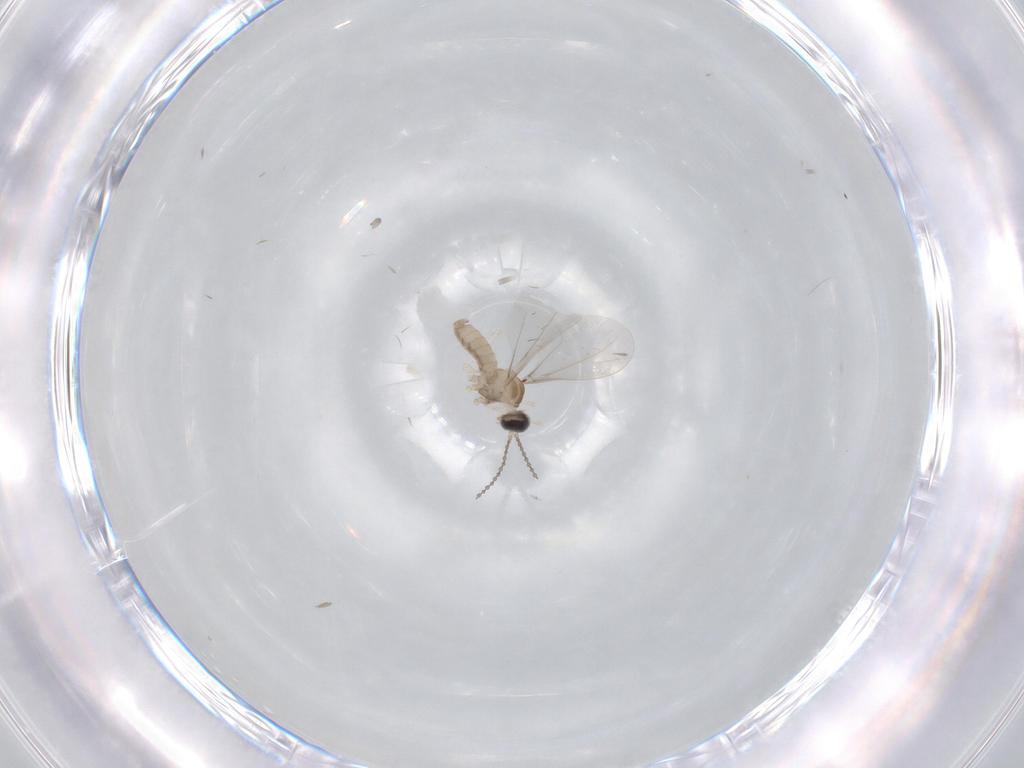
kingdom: Animalia
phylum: Arthropoda
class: Insecta
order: Diptera
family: Cecidomyiidae
